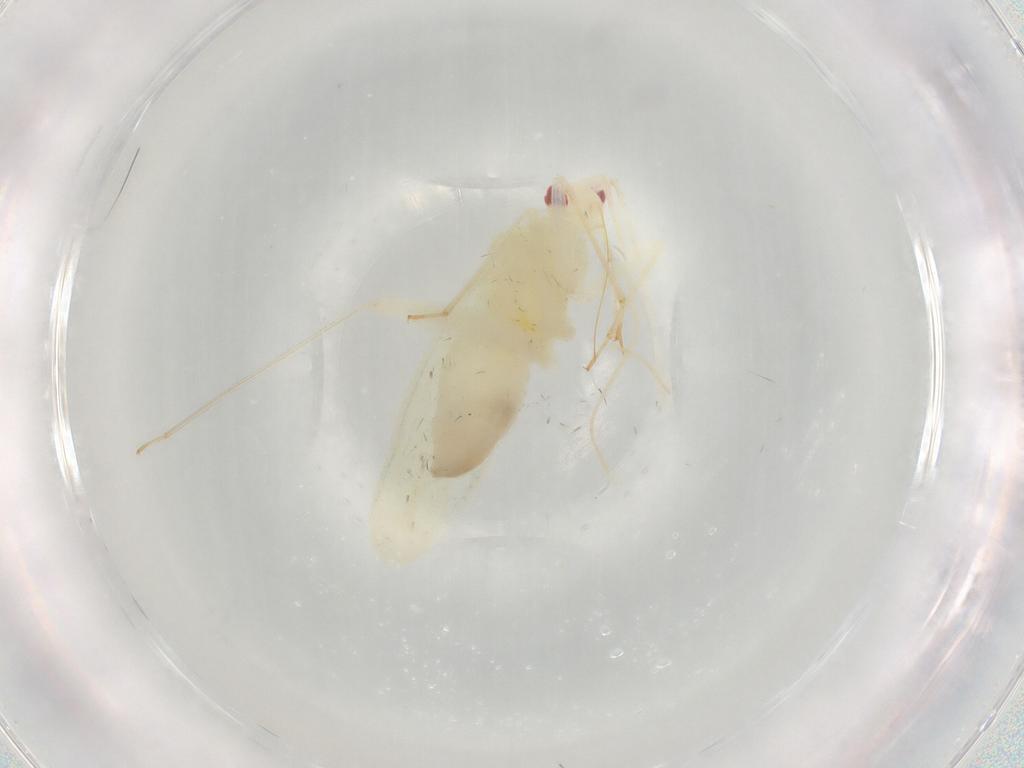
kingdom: Animalia
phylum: Arthropoda
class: Insecta
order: Hemiptera
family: Miridae
